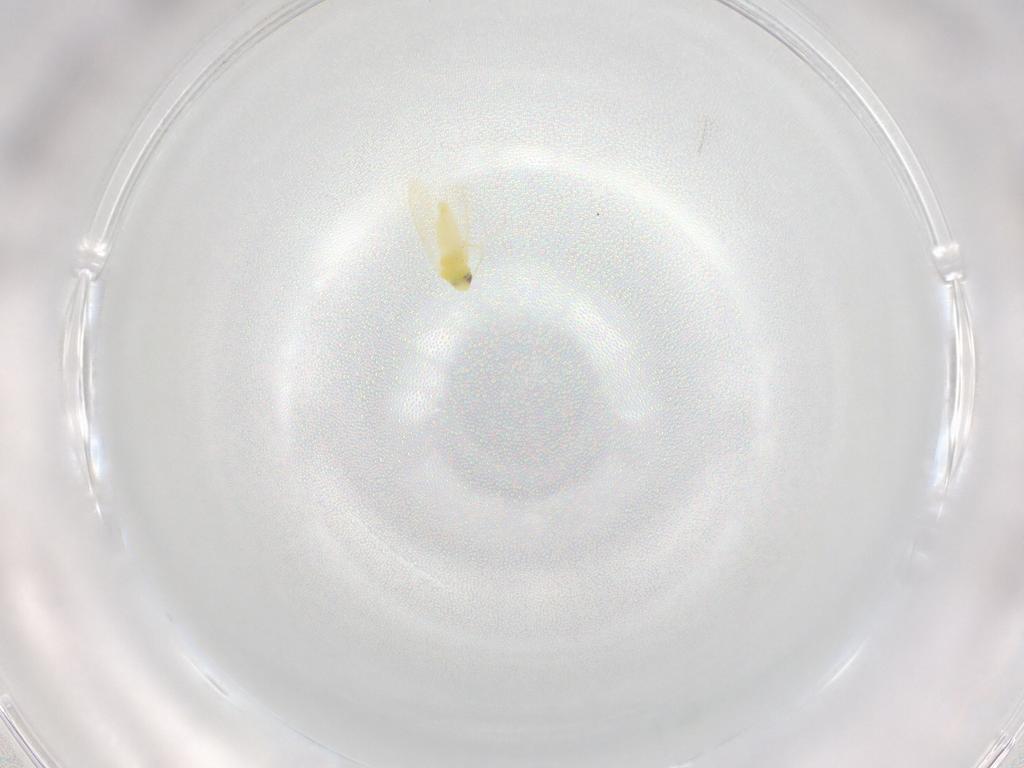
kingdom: Animalia
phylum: Arthropoda
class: Insecta
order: Hemiptera
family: Aleyrodidae
